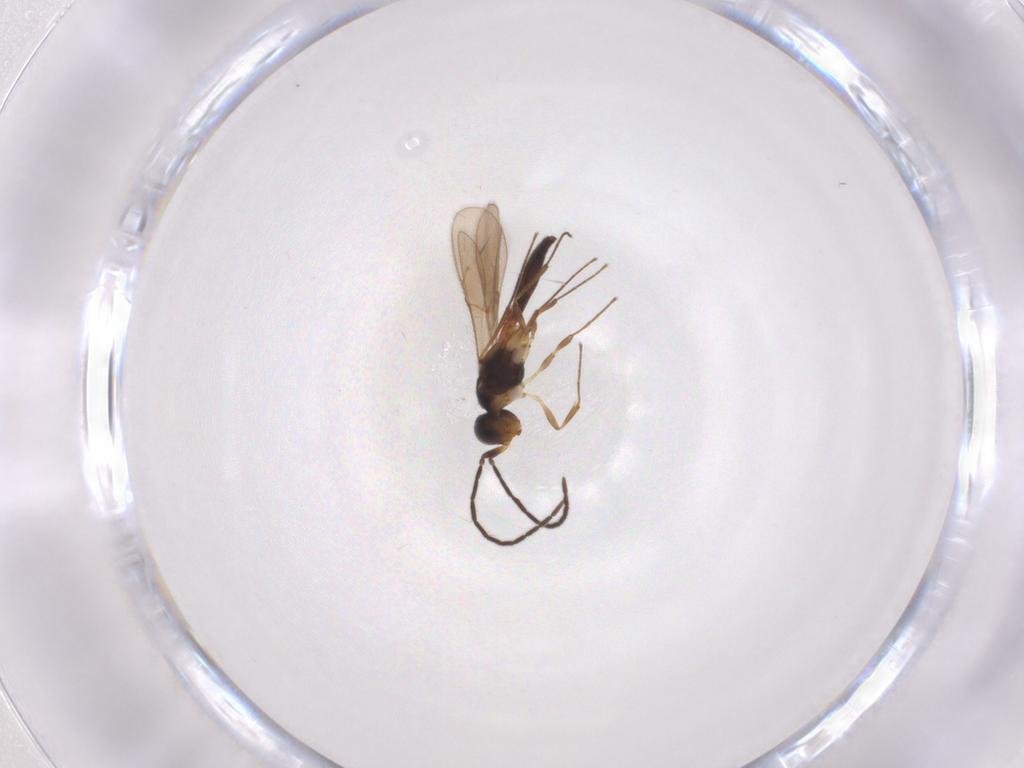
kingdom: Animalia
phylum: Arthropoda
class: Insecta
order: Hymenoptera
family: Scelionidae
